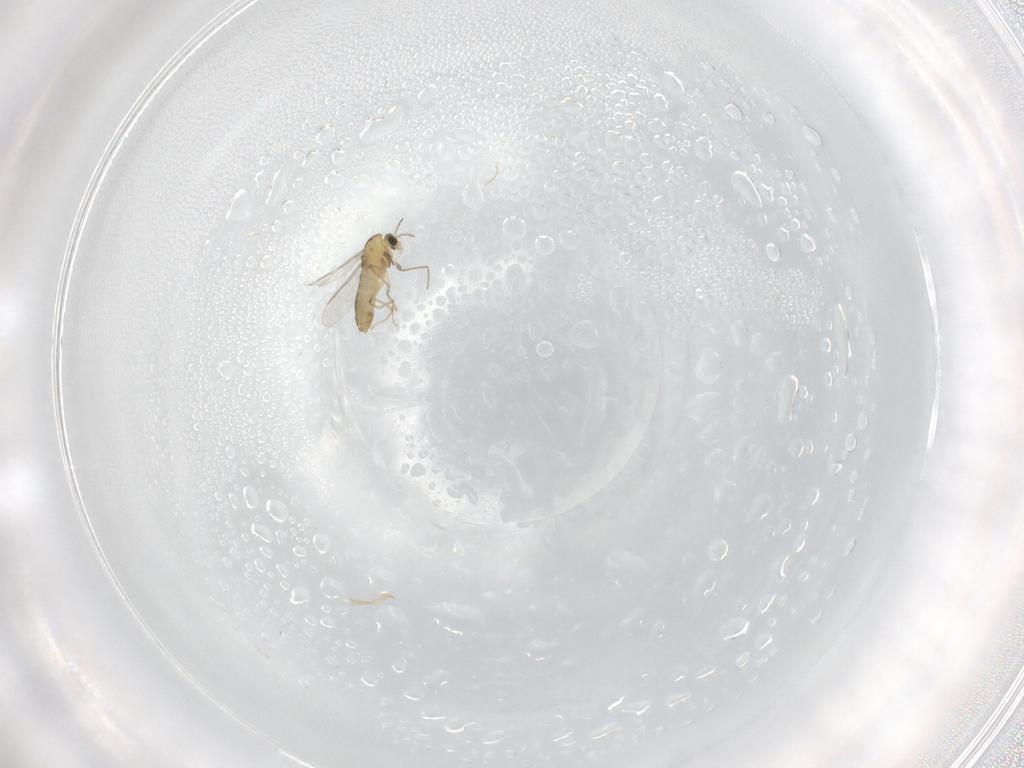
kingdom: Animalia
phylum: Arthropoda
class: Insecta
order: Diptera
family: Cecidomyiidae
